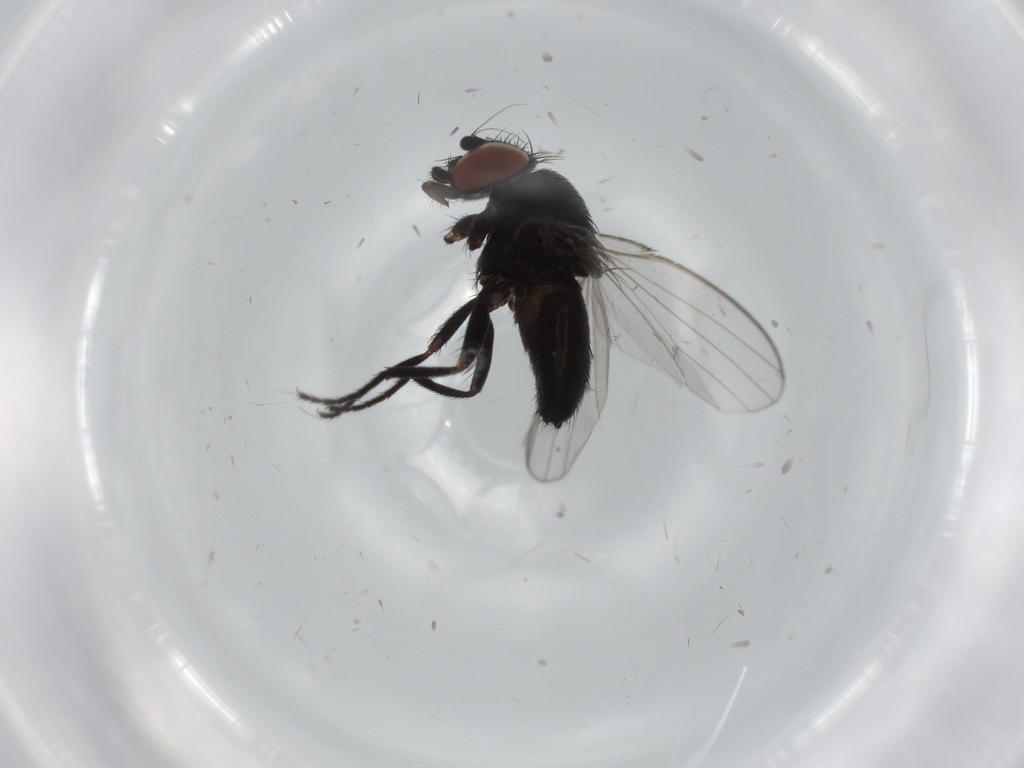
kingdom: Animalia
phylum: Arthropoda
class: Insecta
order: Diptera
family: Milichiidae
